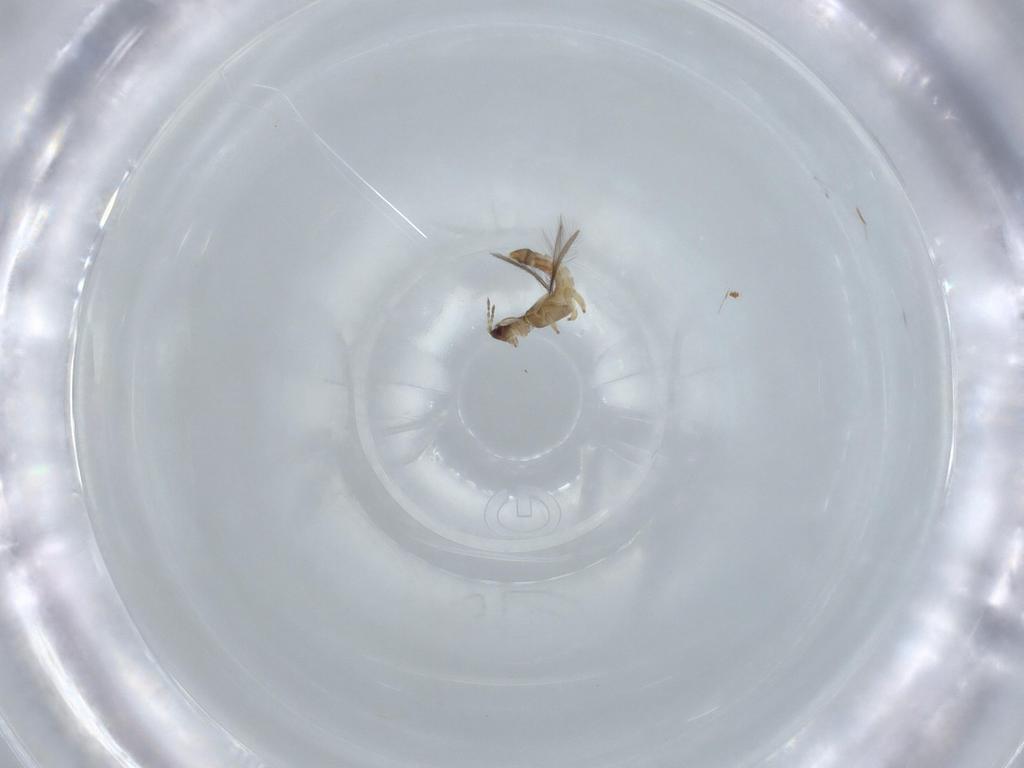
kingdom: Animalia
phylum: Arthropoda
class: Insecta
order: Thysanoptera
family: Thripidae
